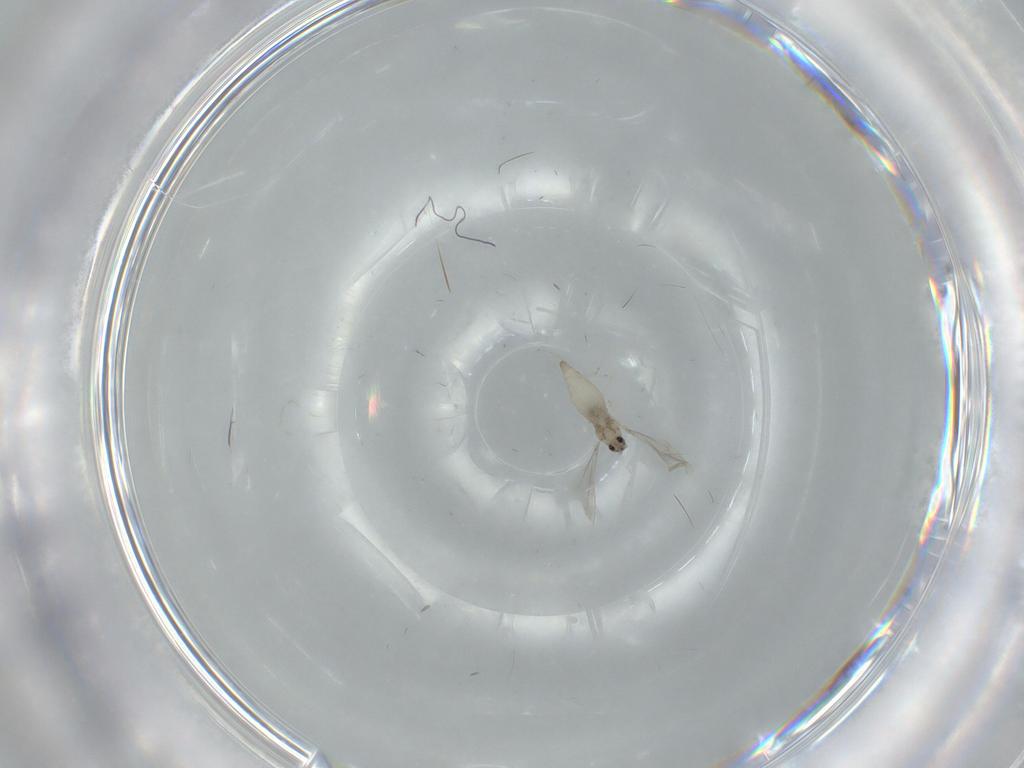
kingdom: Animalia
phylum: Arthropoda
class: Insecta
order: Diptera
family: Cecidomyiidae
